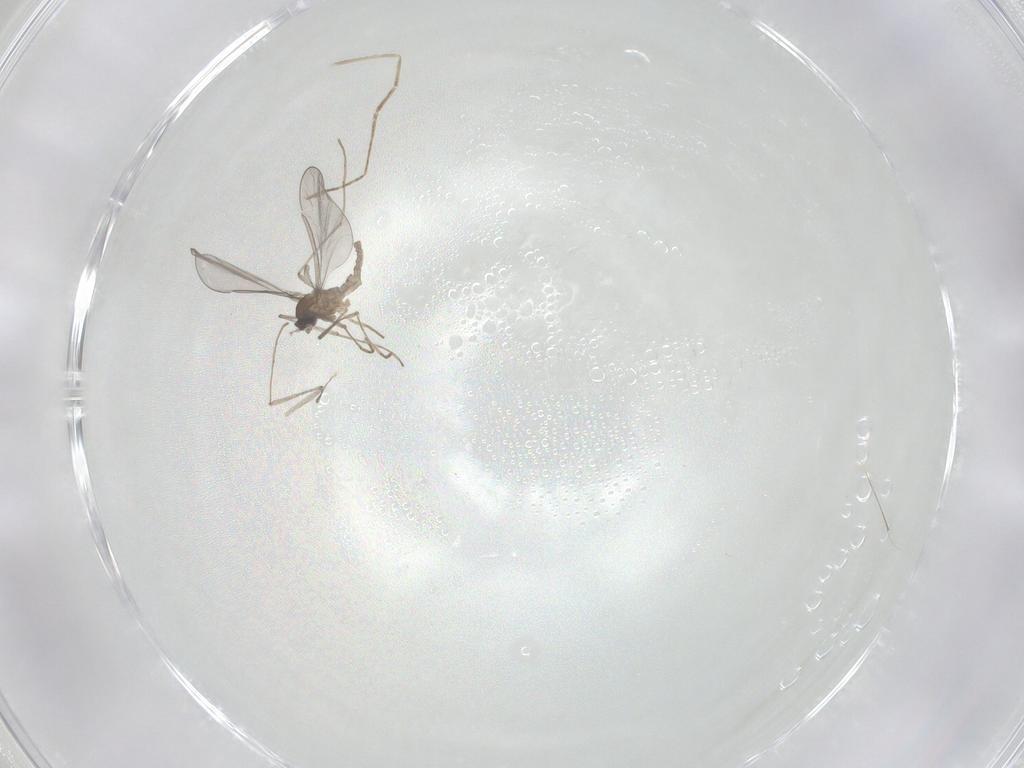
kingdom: Animalia
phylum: Arthropoda
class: Insecta
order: Diptera
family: Cecidomyiidae
